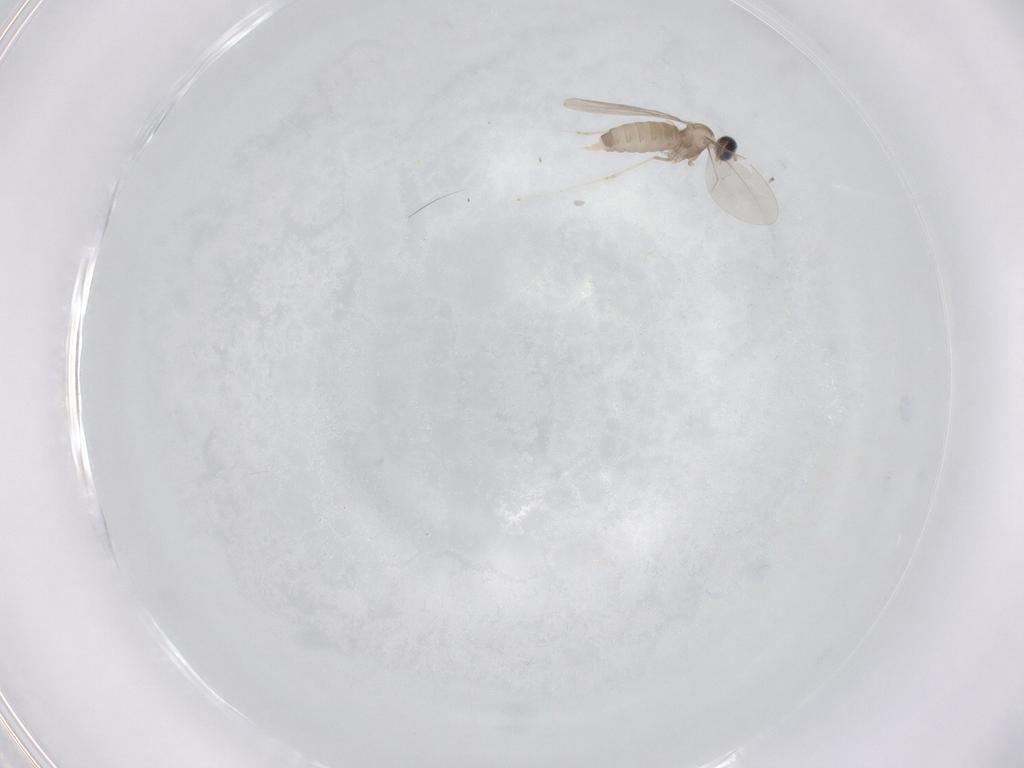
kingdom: Animalia
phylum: Arthropoda
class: Insecta
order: Diptera
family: Cecidomyiidae
